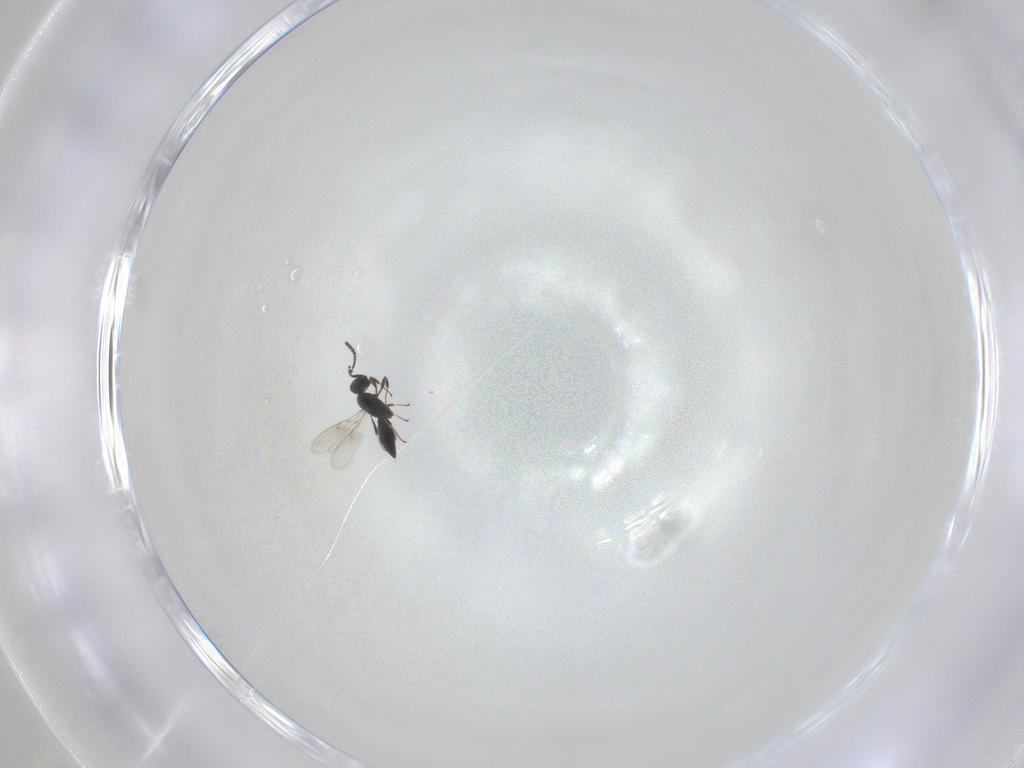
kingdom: Animalia
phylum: Arthropoda
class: Insecta
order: Hymenoptera
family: Scelionidae
